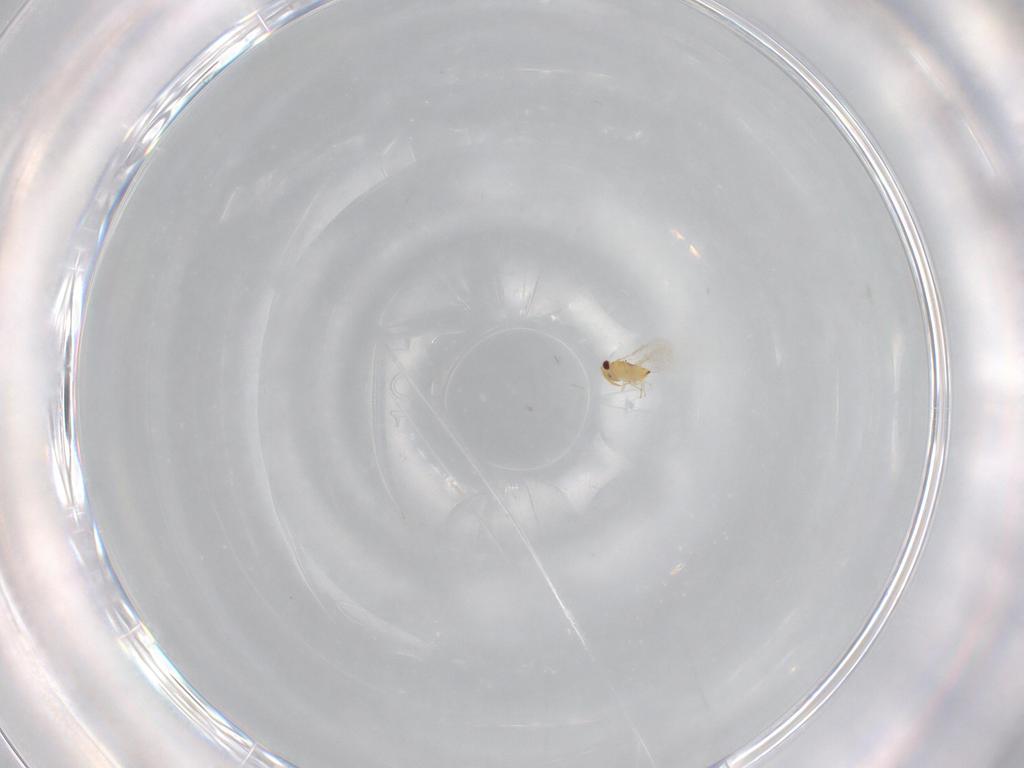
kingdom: Animalia
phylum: Arthropoda
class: Insecta
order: Hymenoptera
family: Aphelinidae
